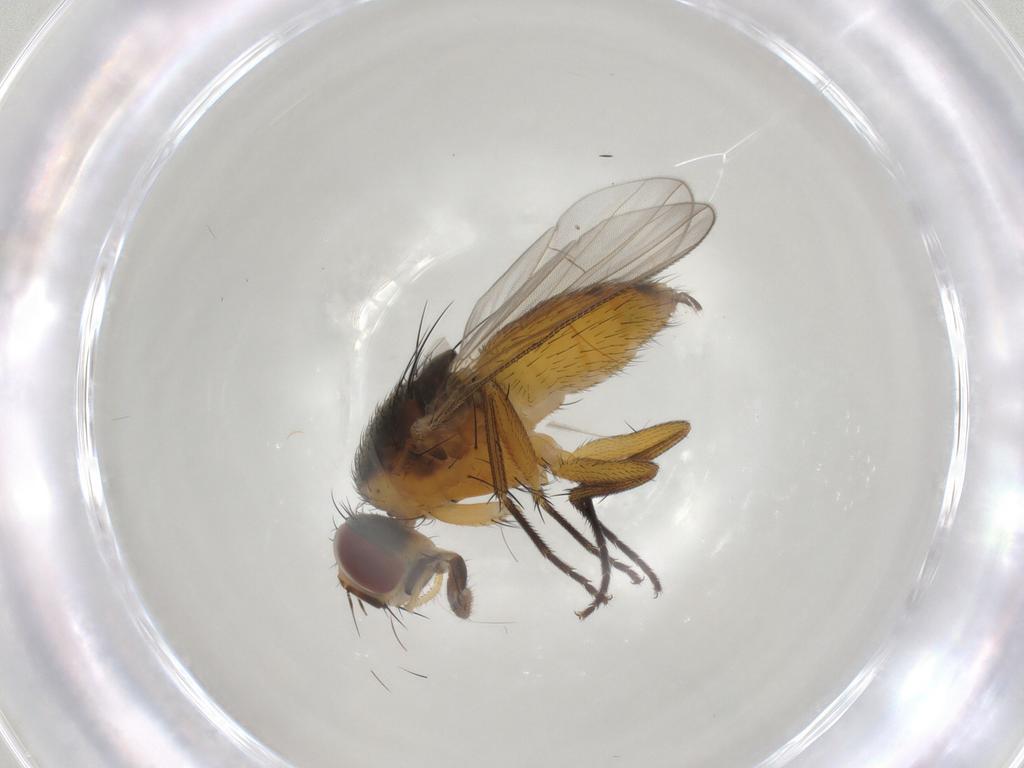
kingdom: Animalia
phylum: Arthropoda
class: Insecta
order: Diptera
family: Muscidae
